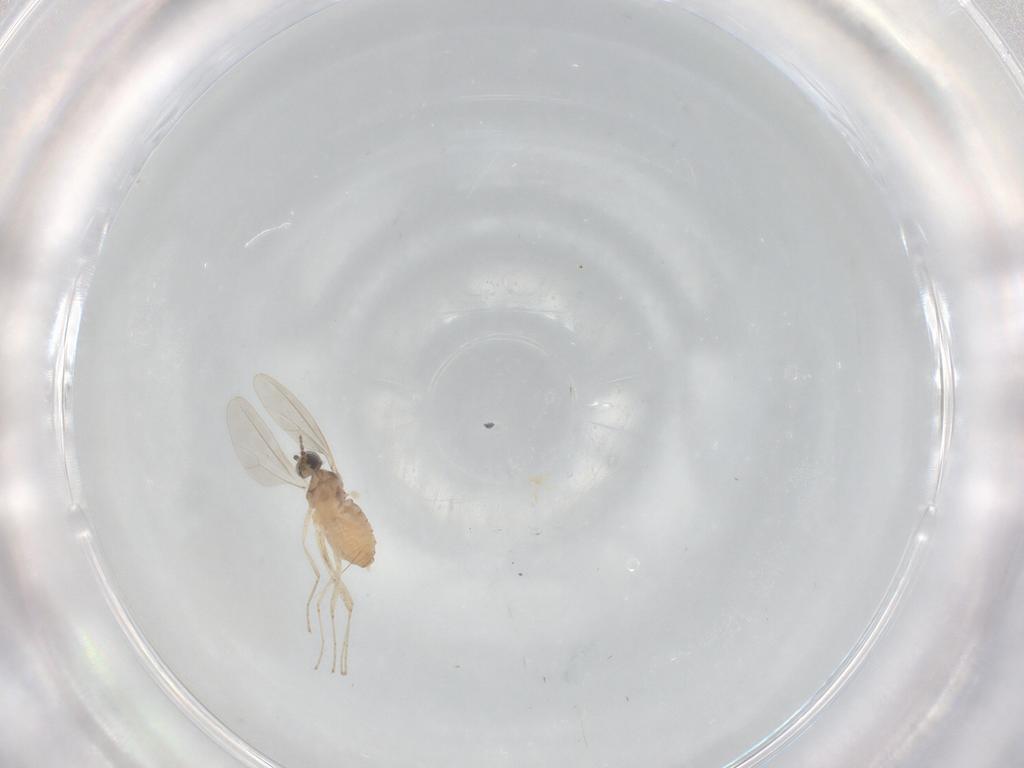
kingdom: Animalia
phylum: Arthropoda
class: Insecta
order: Diptera
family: Cecidomyiidae
